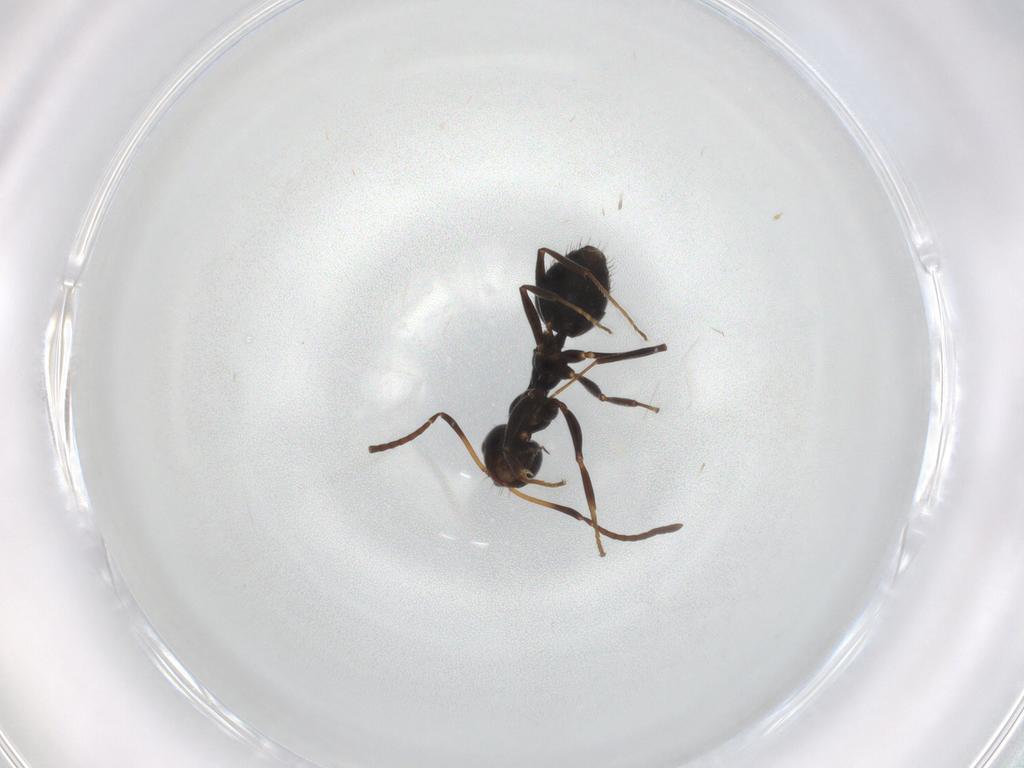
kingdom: Animalia
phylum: Arthropoda
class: Insecta
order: Hymenoptera
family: Formicidae
